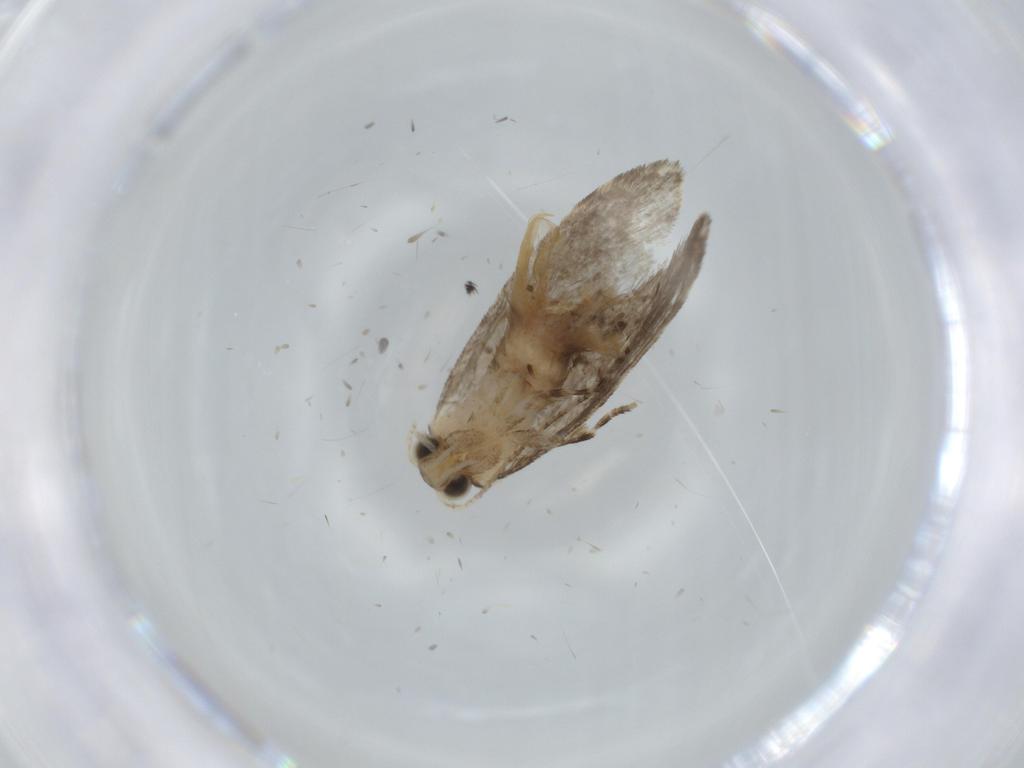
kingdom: Animalia
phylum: Arthropoda
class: Insecta
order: Lepidoptera
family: Tineidae
